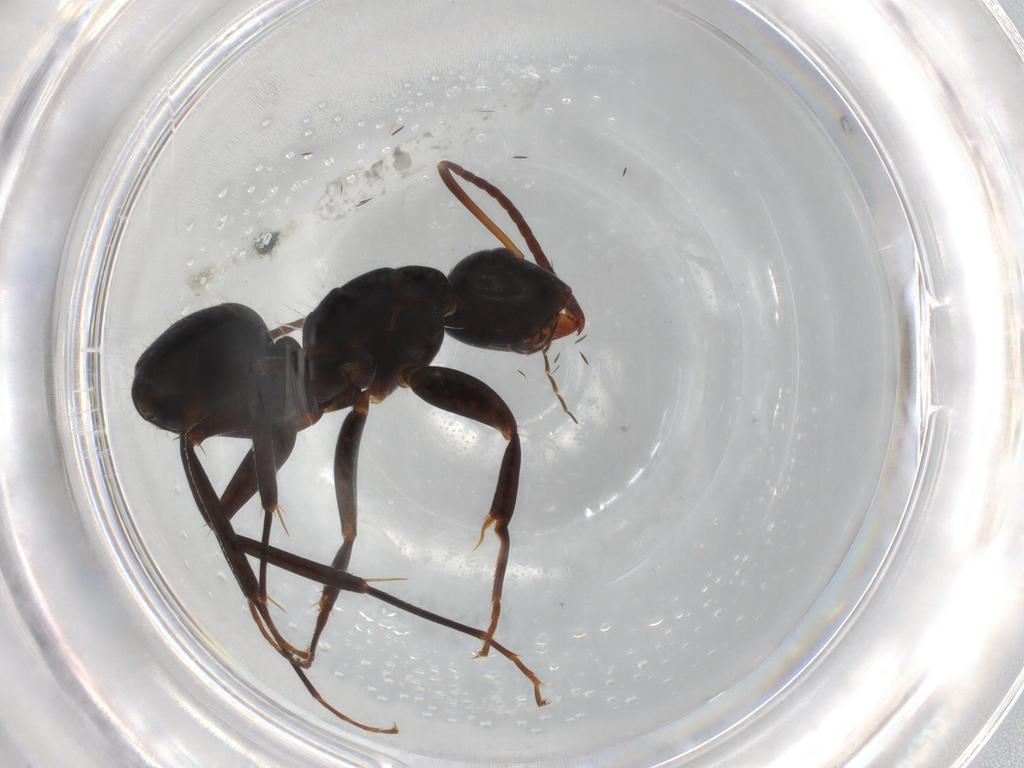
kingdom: Animalia
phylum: Arthropoda
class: Insecta
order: Hymenoptera
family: Formicidae
